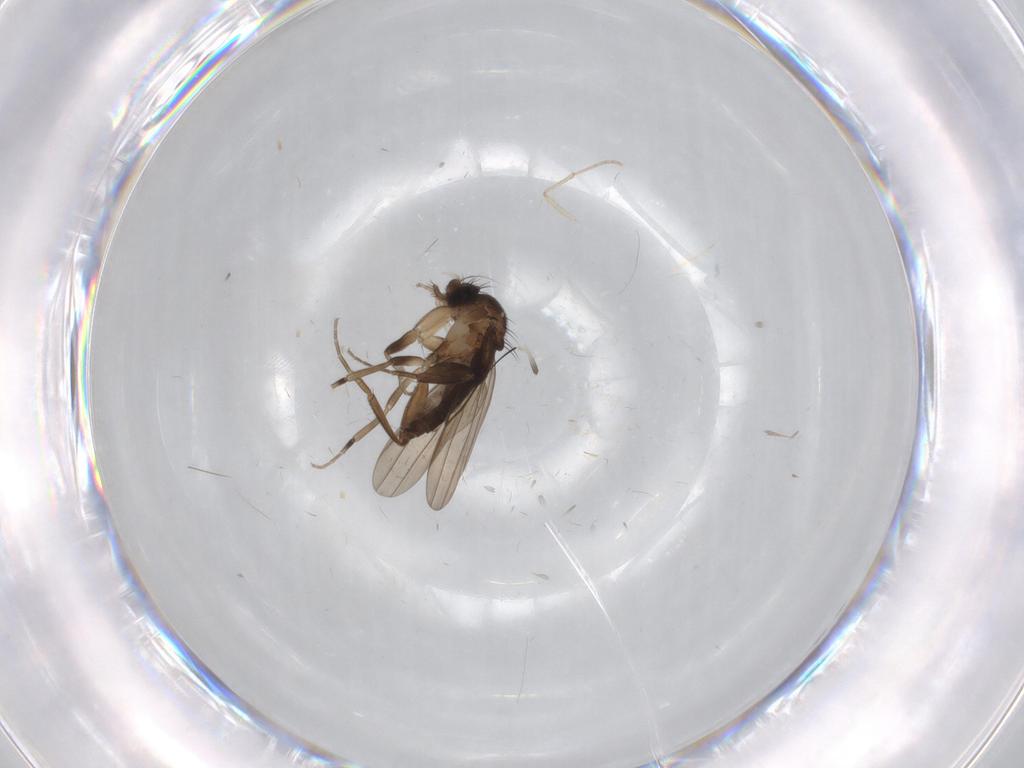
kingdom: Animalia
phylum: Arthropoda
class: Insecta
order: Diptera
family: Psychodidae
